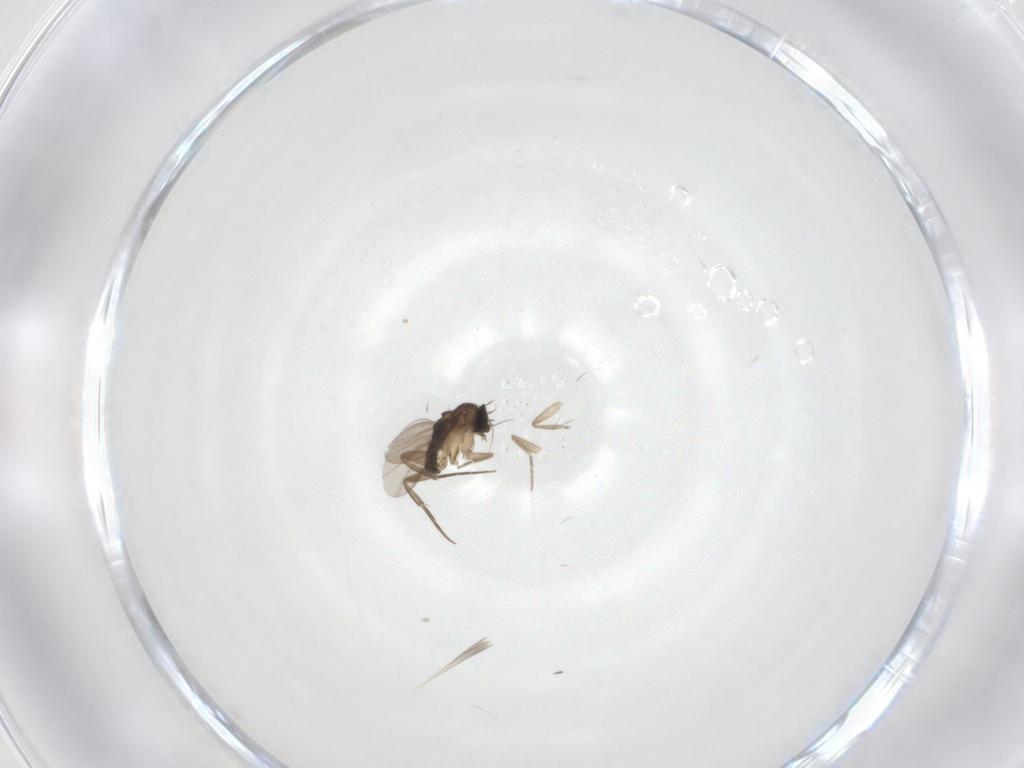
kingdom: Animalia
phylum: Arthropoda
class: Insecta
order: Diptera
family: Phoridae
